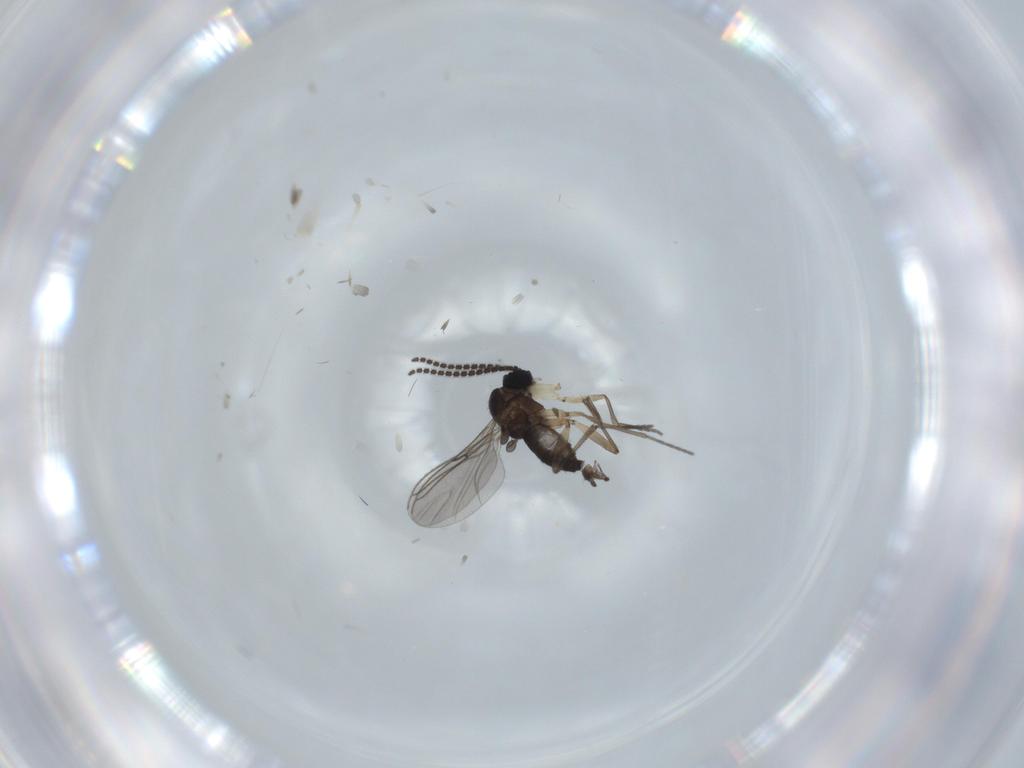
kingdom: Animalia
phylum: Arthropoda
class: Insecta
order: Diptera
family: Sciaridae
